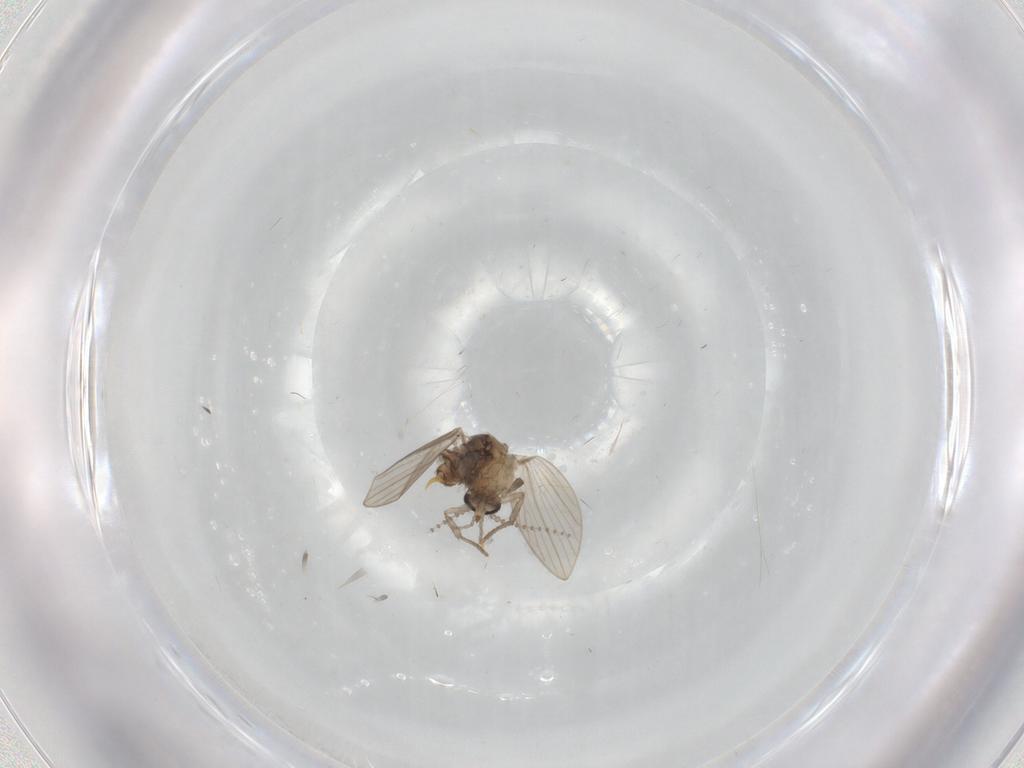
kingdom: Animalia
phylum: Arthropoda
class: Insecta
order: Diptera
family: Psychodidae
